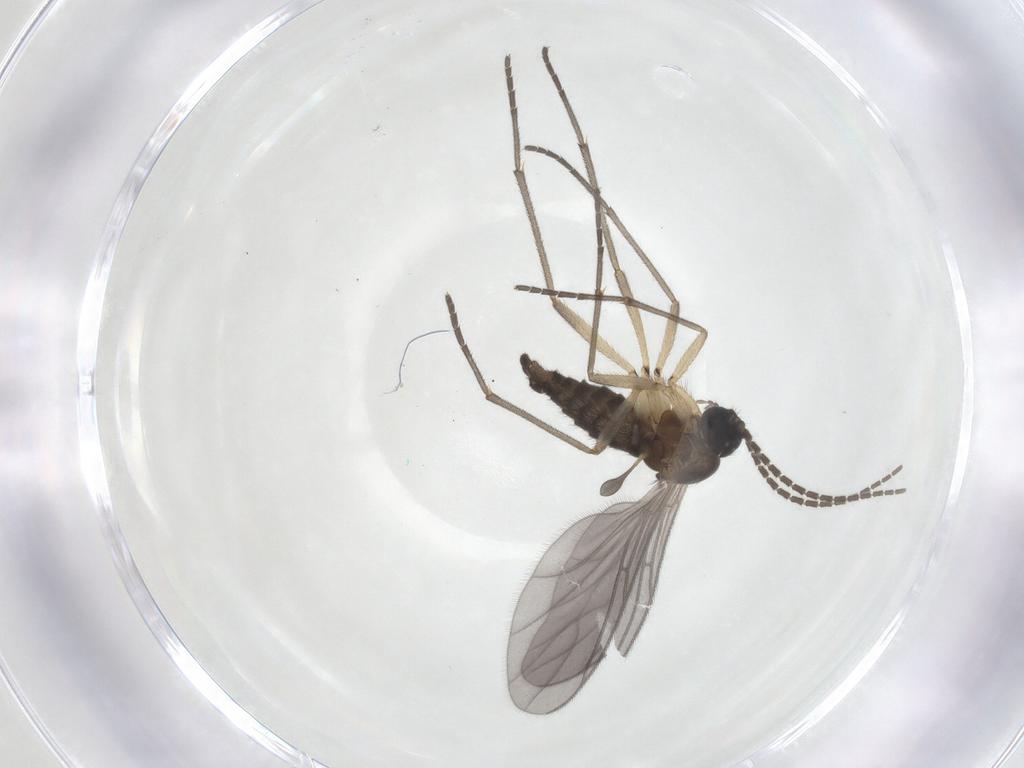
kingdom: Animalia
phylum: Arthropoda
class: Insecta
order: Diptera
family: Sciaridae
